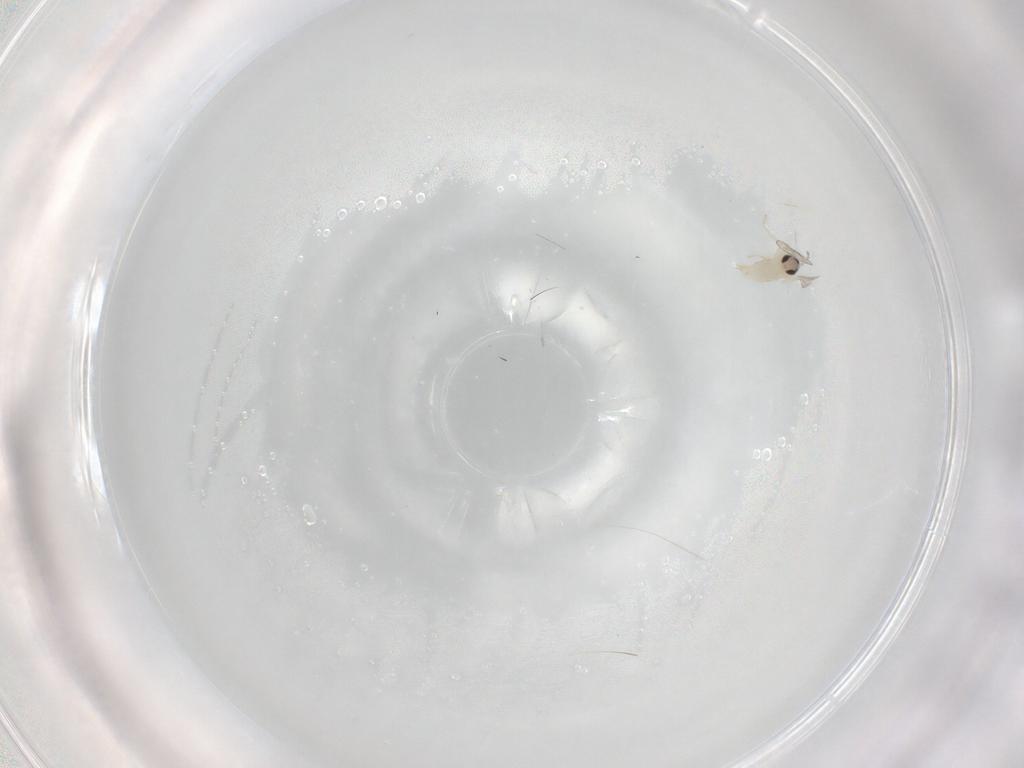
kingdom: Animalia
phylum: Arthropoda
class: Insecta
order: Diptera
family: Cecidomyiidae
